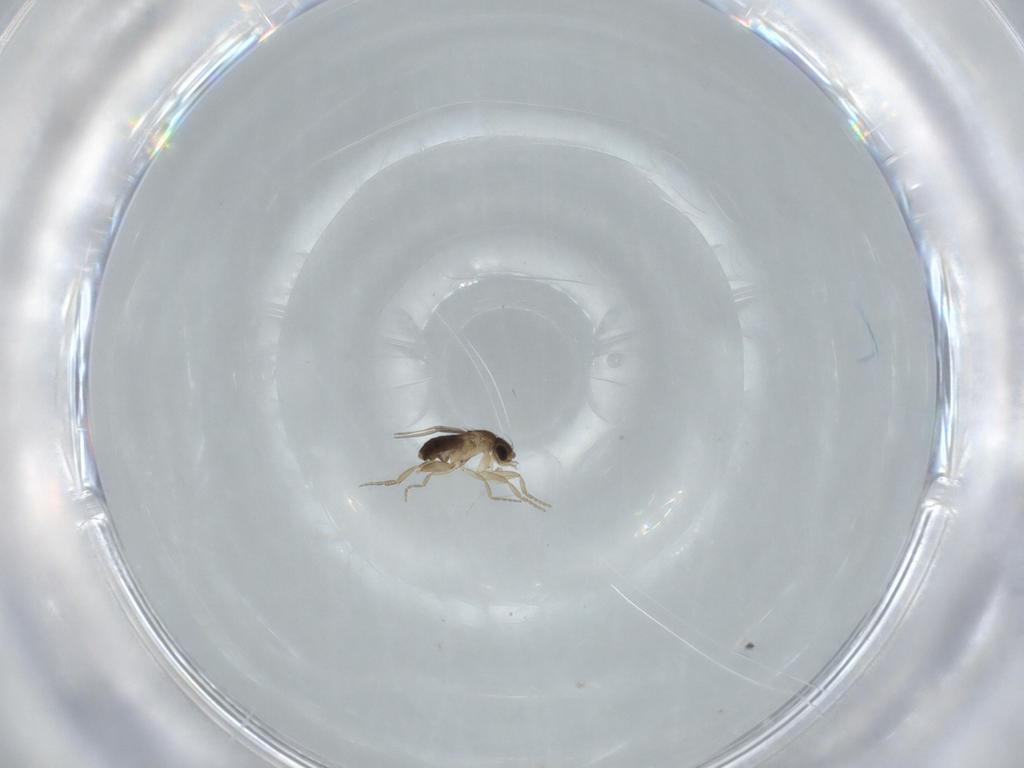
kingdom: Animalia
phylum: Arthropoda
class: Insecta
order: Diptera
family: Phoridae
